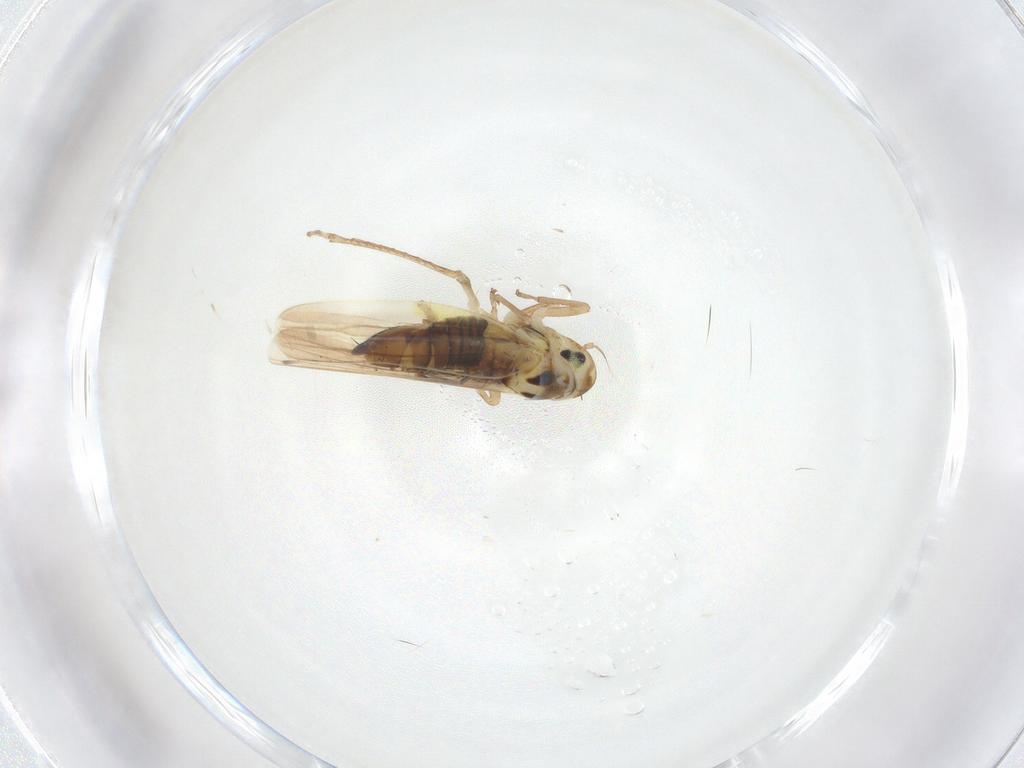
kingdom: Animalia
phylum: Arthropoda
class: Insecta
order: Hemiptera
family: Cicadellidae
